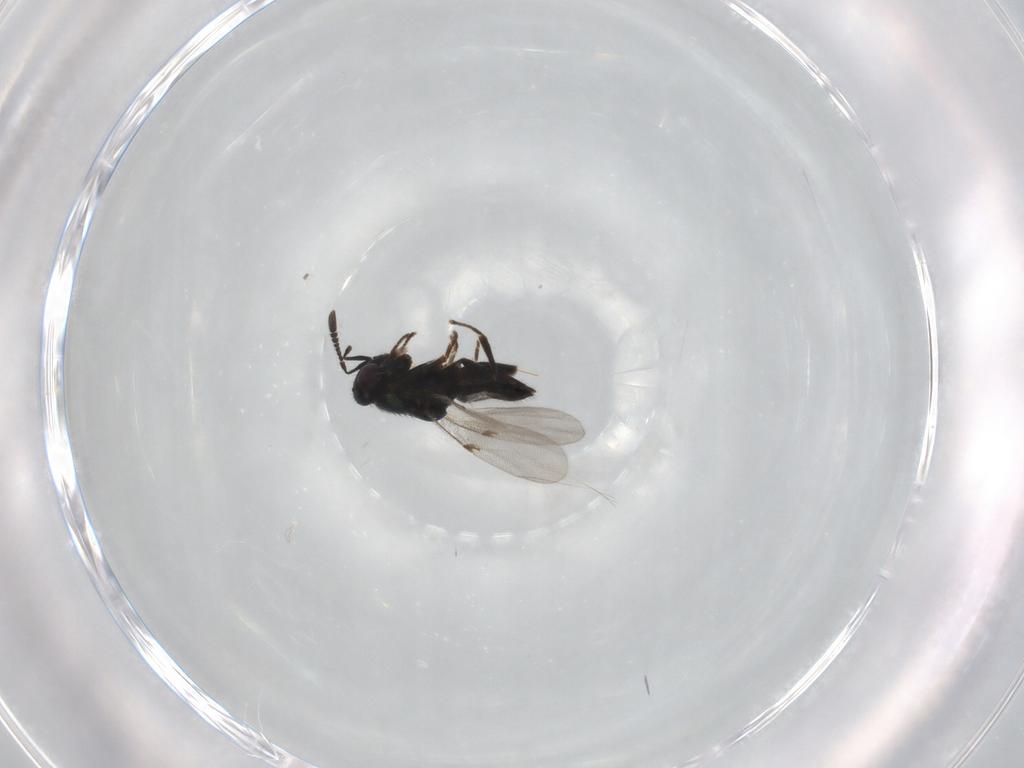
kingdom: Animalia
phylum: Arthropoda
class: Insecta
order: Hymenoptera
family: Encyrtidae
